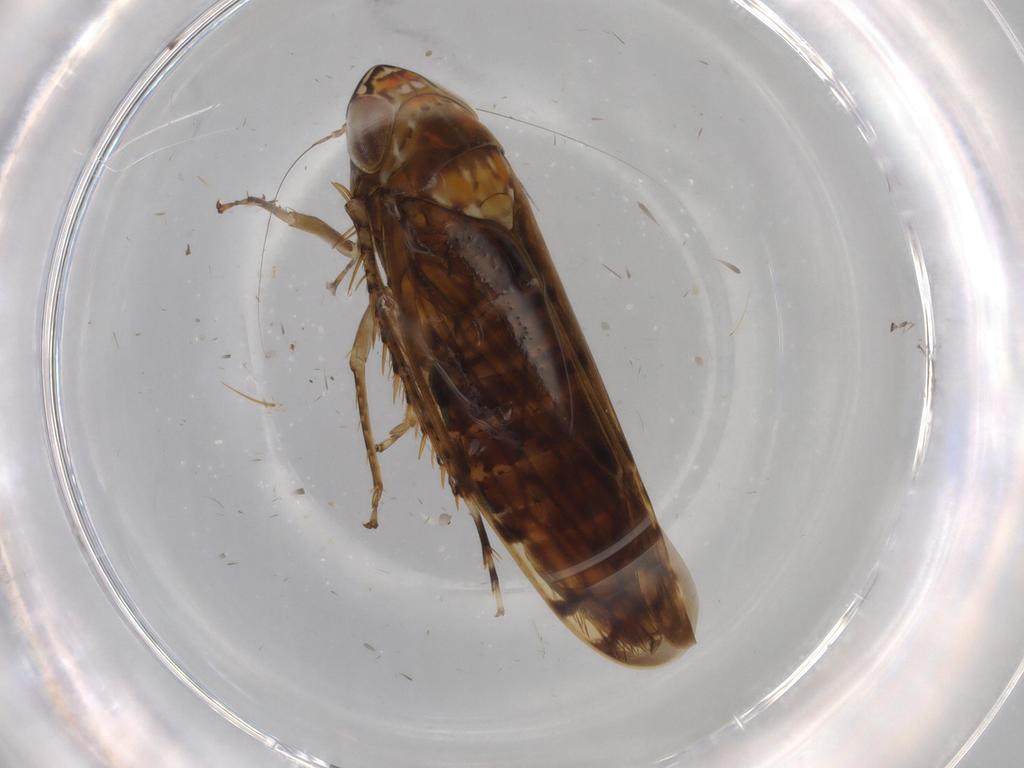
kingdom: Animalia
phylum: Arthropoda
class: Insecta
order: Hemiptera
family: Cicadellidae
